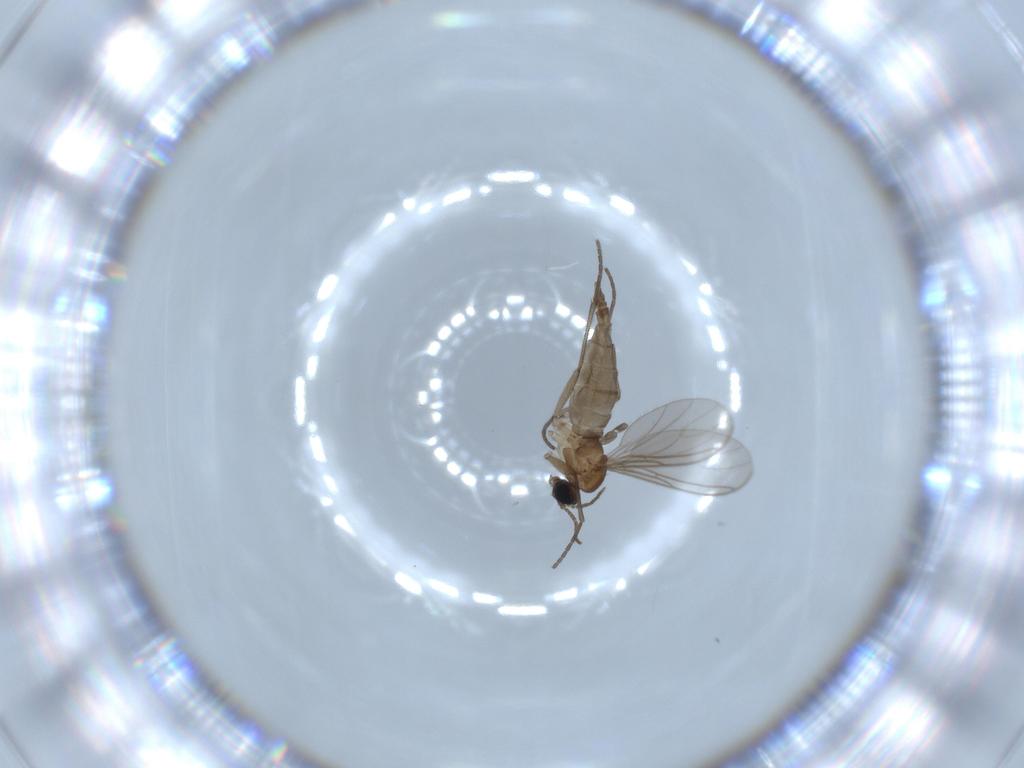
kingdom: Animalia
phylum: Arthropoda
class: Insecta
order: Diptera
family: Sciaridae
